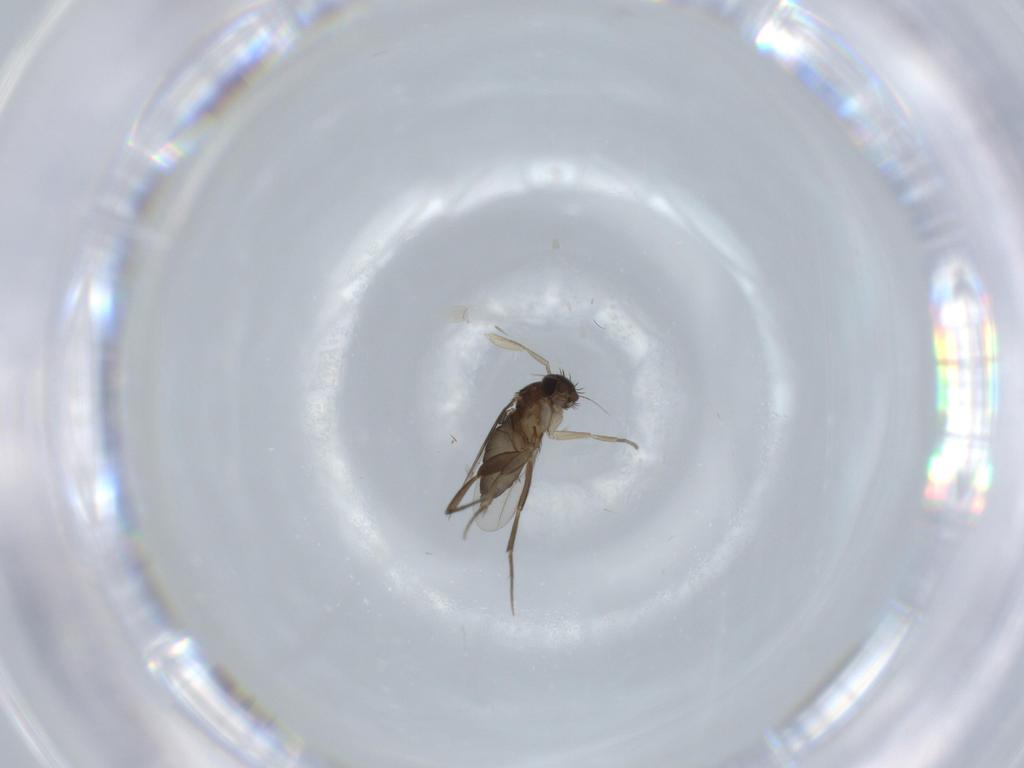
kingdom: Animalia
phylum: Arthropoda
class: Insecta
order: Diptera
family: Phoridae
